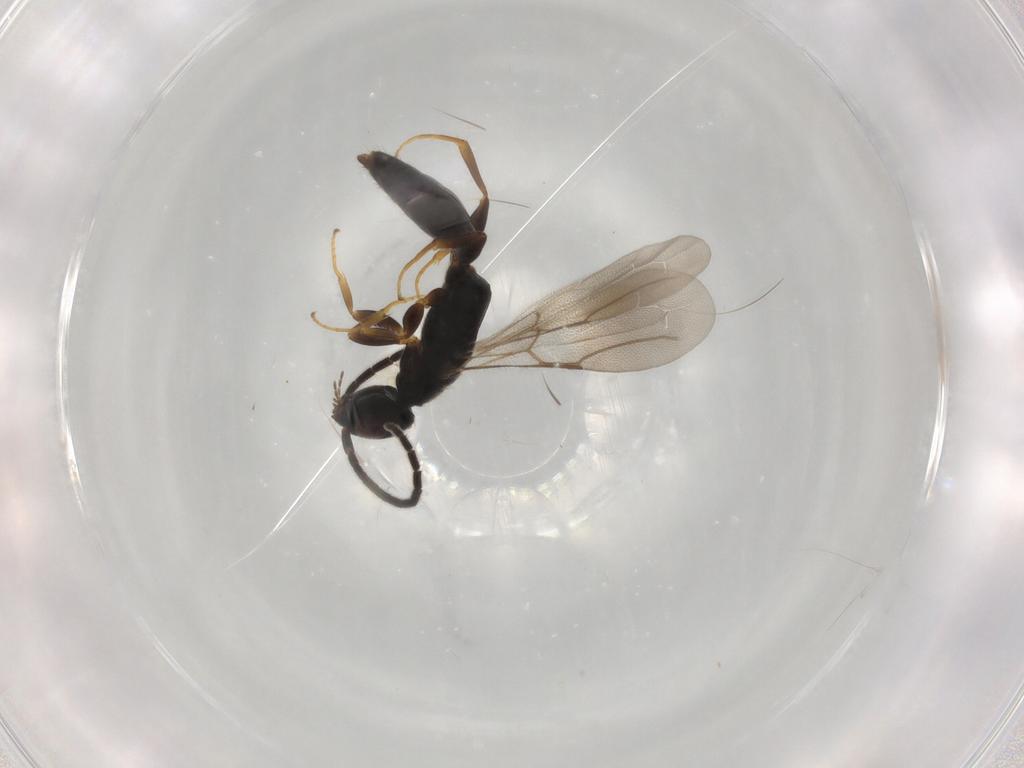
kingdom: Animalia
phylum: Arthropoda
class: Insecta
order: Hymenoptera
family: Bethylidae
